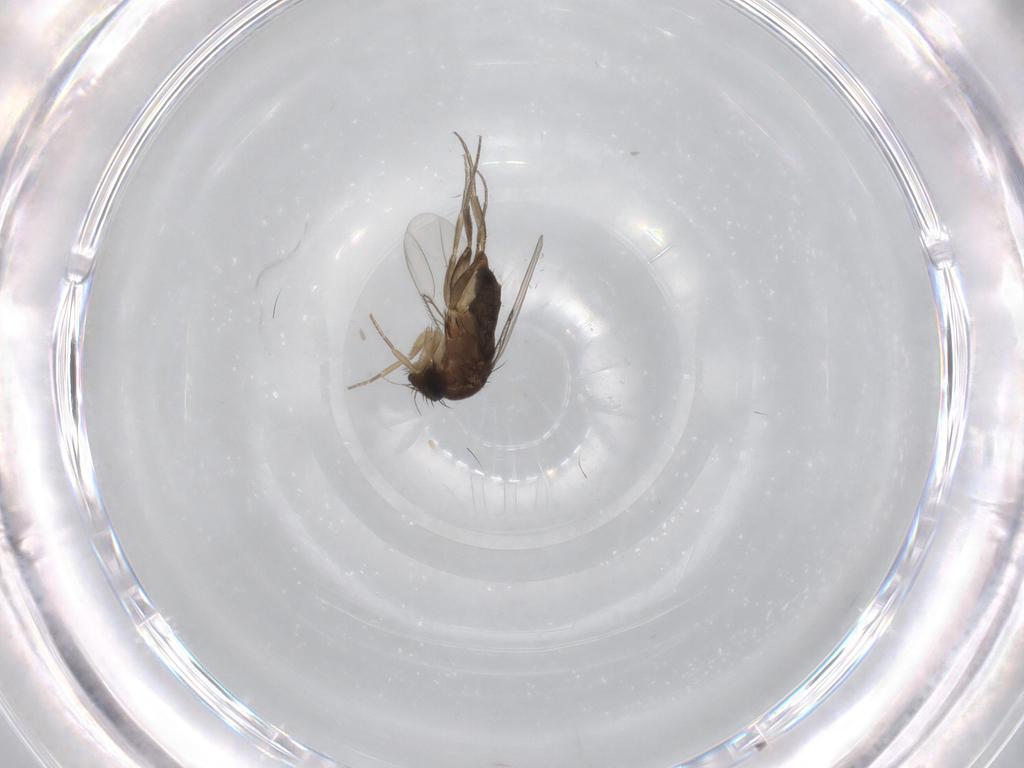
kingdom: Animalia
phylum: Arthropoda
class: Insecta
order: Diptera
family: Phoridae
